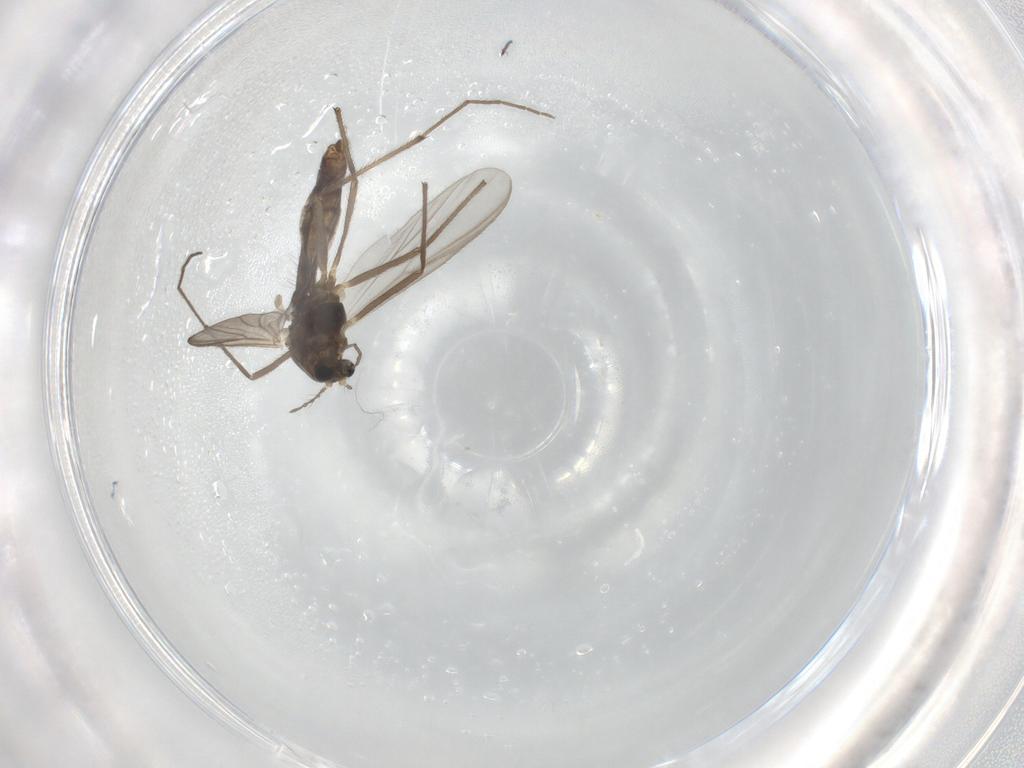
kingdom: Animalia
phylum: Arthropoda
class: Insecta
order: Diptera
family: Chironomidae
